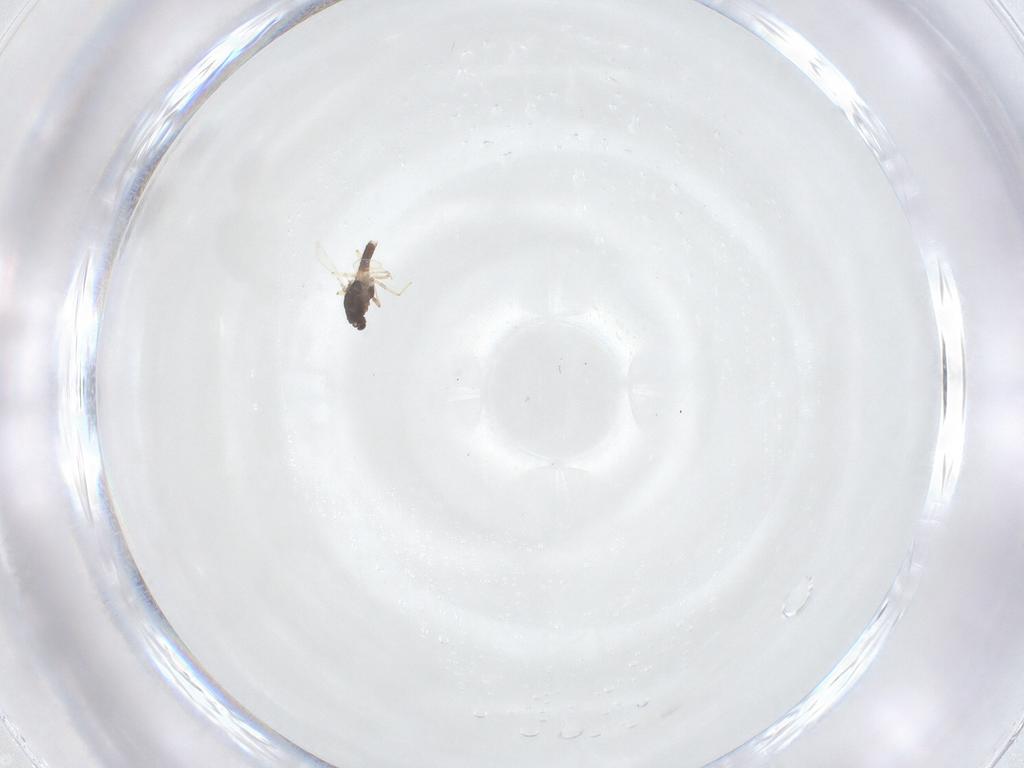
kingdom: Animalia
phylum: Arthropoda
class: Insecta
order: Diptera
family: Chironomidae
